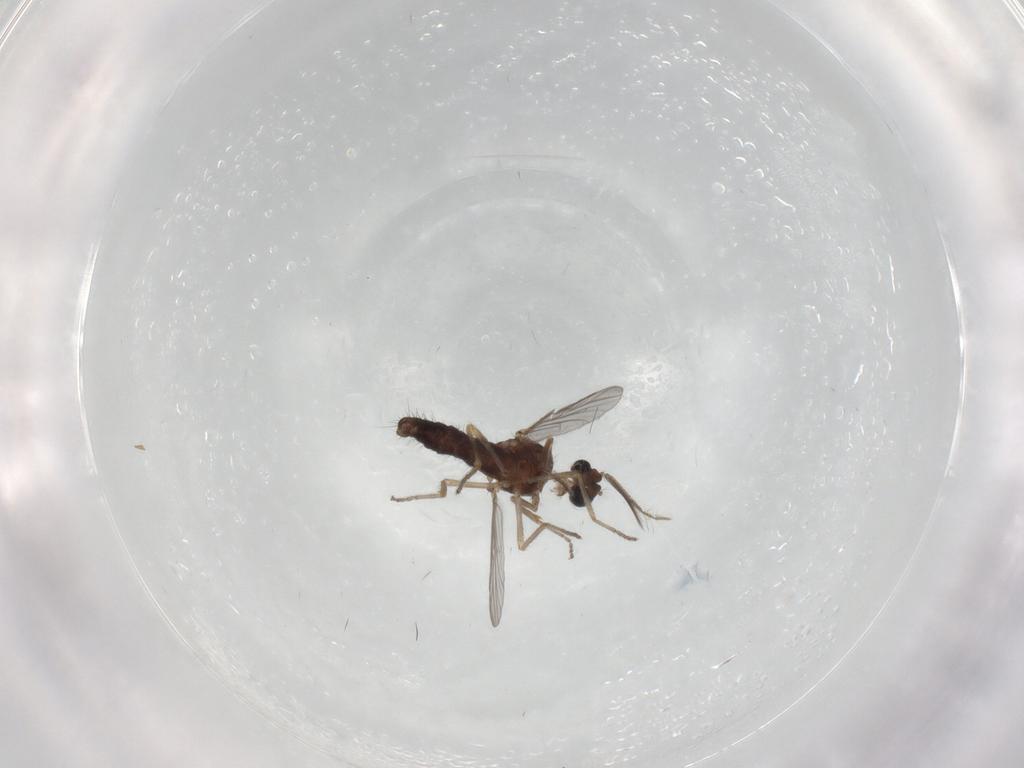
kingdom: Animalia
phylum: Arthropoda
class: Insecta
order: Diptera
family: Ceratopogonidae
